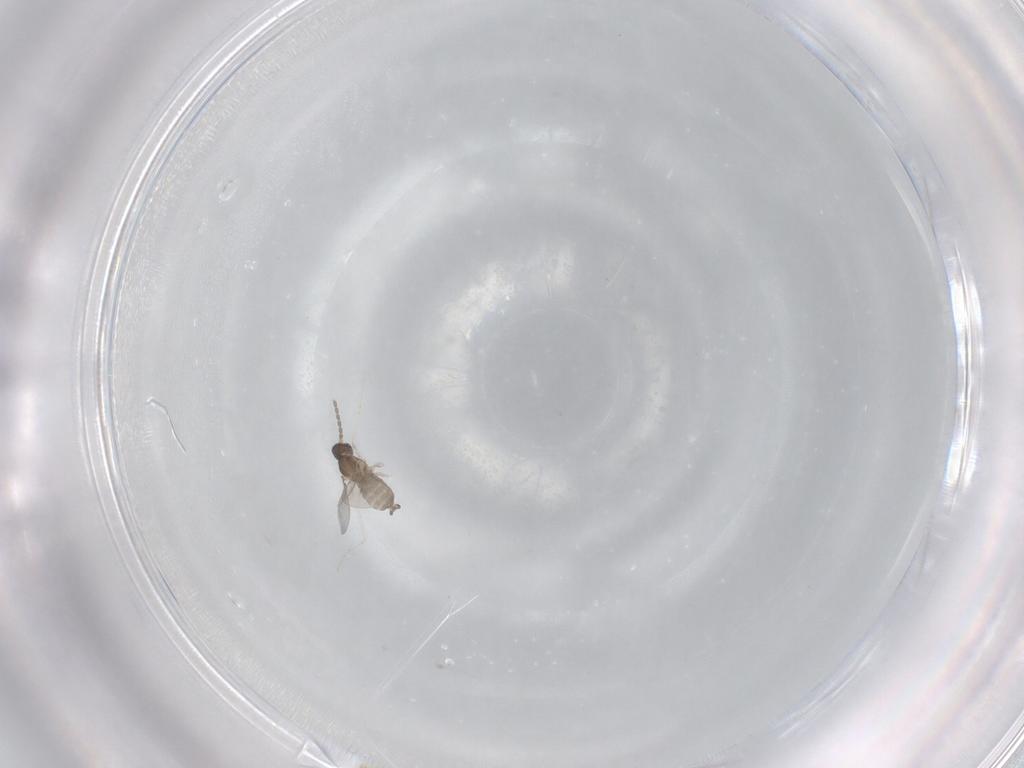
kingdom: Animalia
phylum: Arthropoda
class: Insecta
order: Diptera
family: Cecidomyiidae
